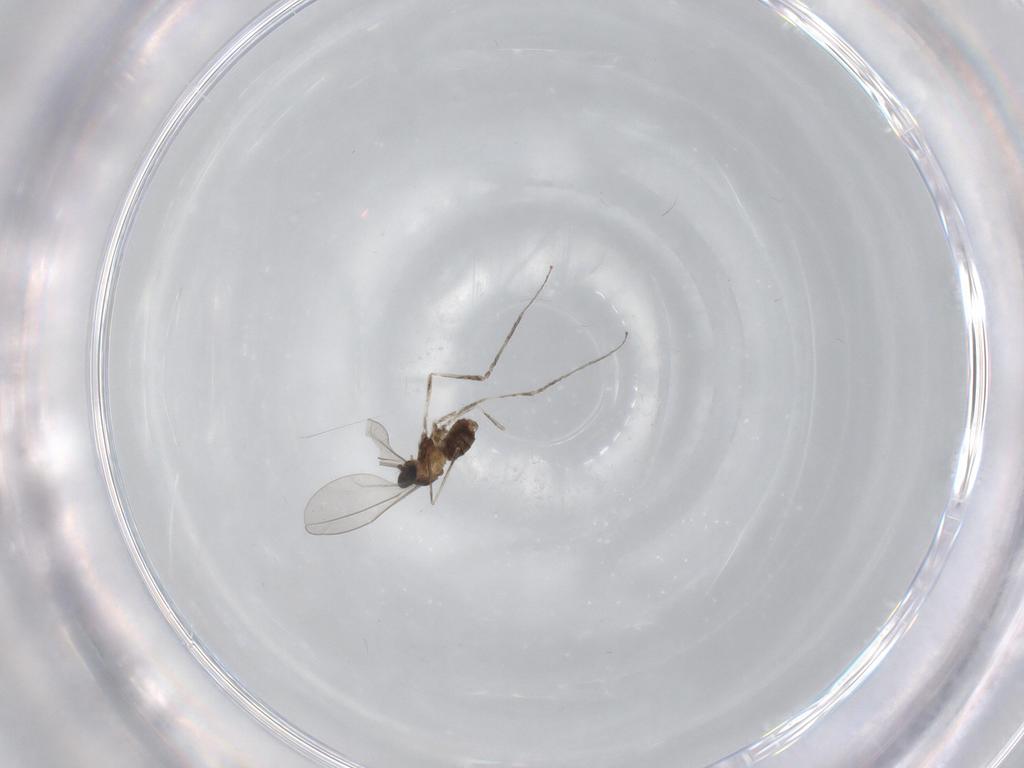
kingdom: Animalia
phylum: Arthropoda
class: Insecta
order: Diptera
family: Cecidomyiidae
